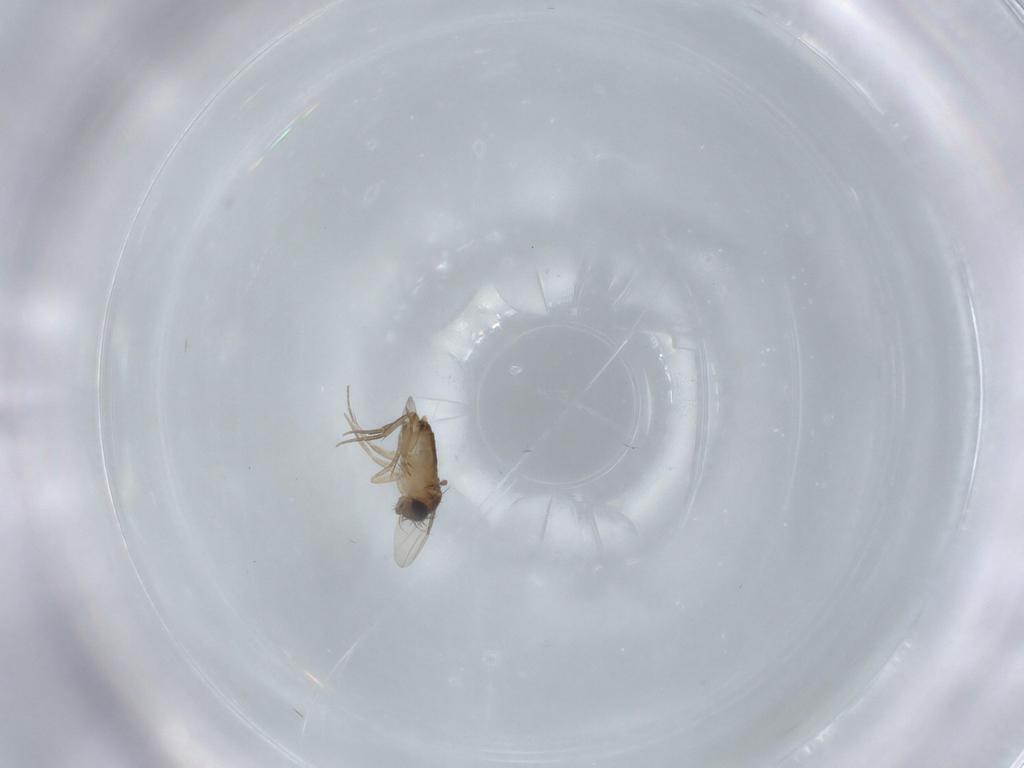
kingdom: Animalia
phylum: Arthropoda
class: Insecta
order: Diptera
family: Phoridae
